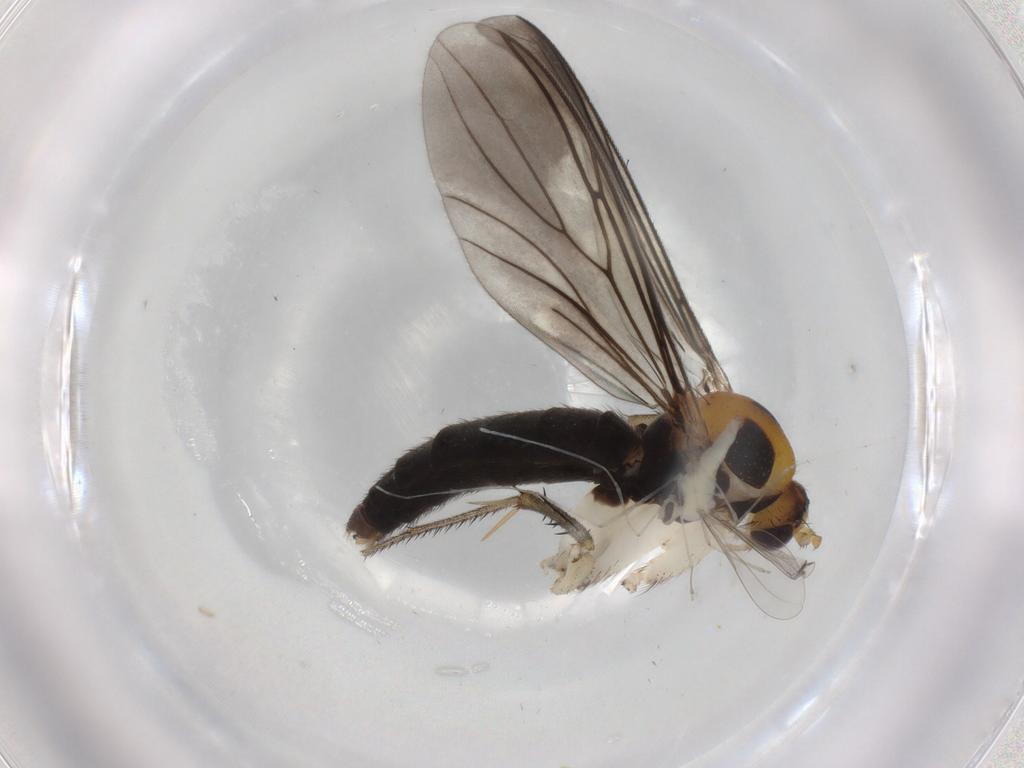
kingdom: Animalia
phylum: Arthropoda
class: Insecta
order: Diptera
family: Sciaridae
